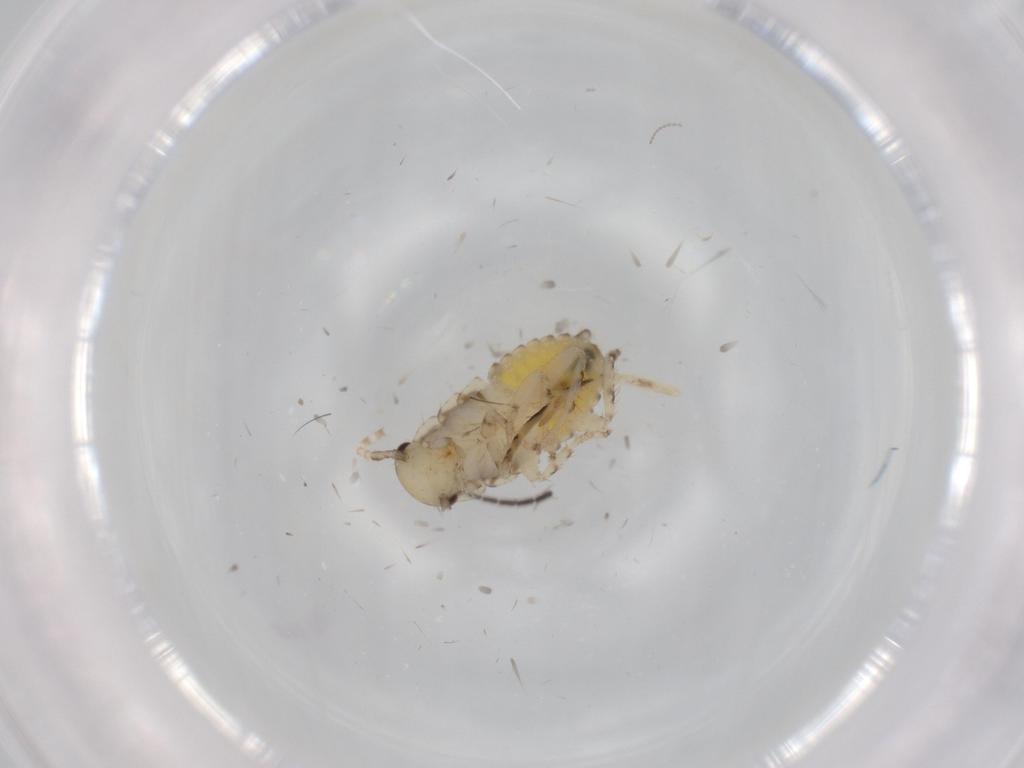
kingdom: Animalia
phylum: Arthropoda
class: Insecta
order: Blattodea
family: Ectobiidae
